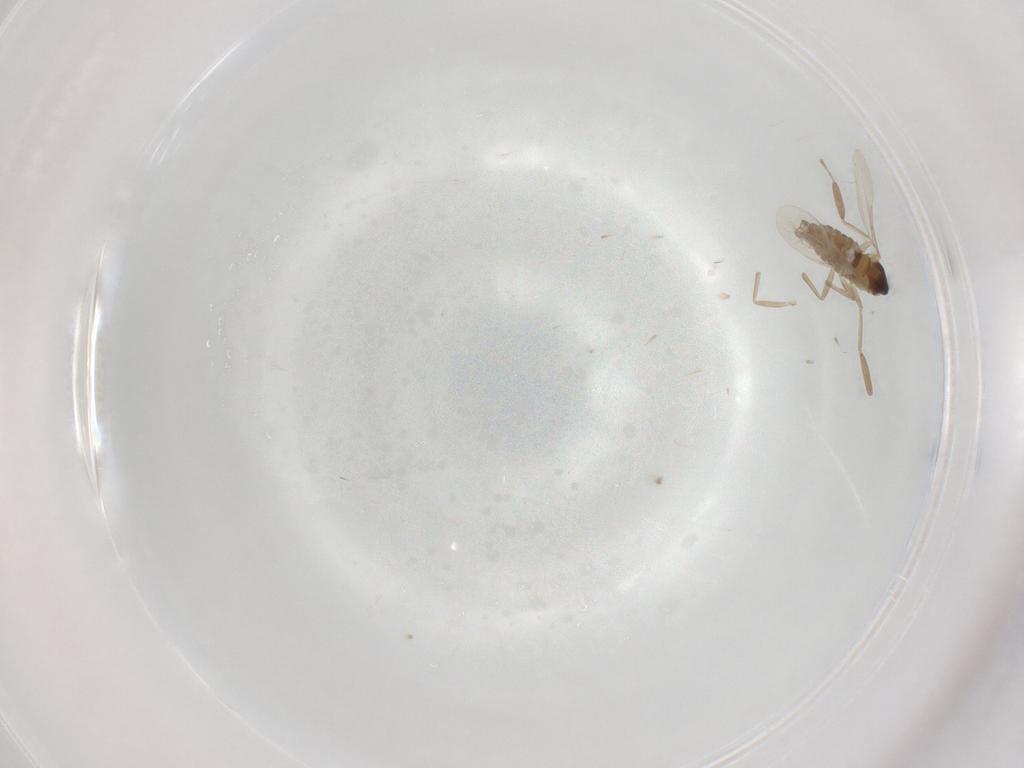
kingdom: Animalia
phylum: Arthropoda
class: Insecta
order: Diptera
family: Cecidomyiidae
